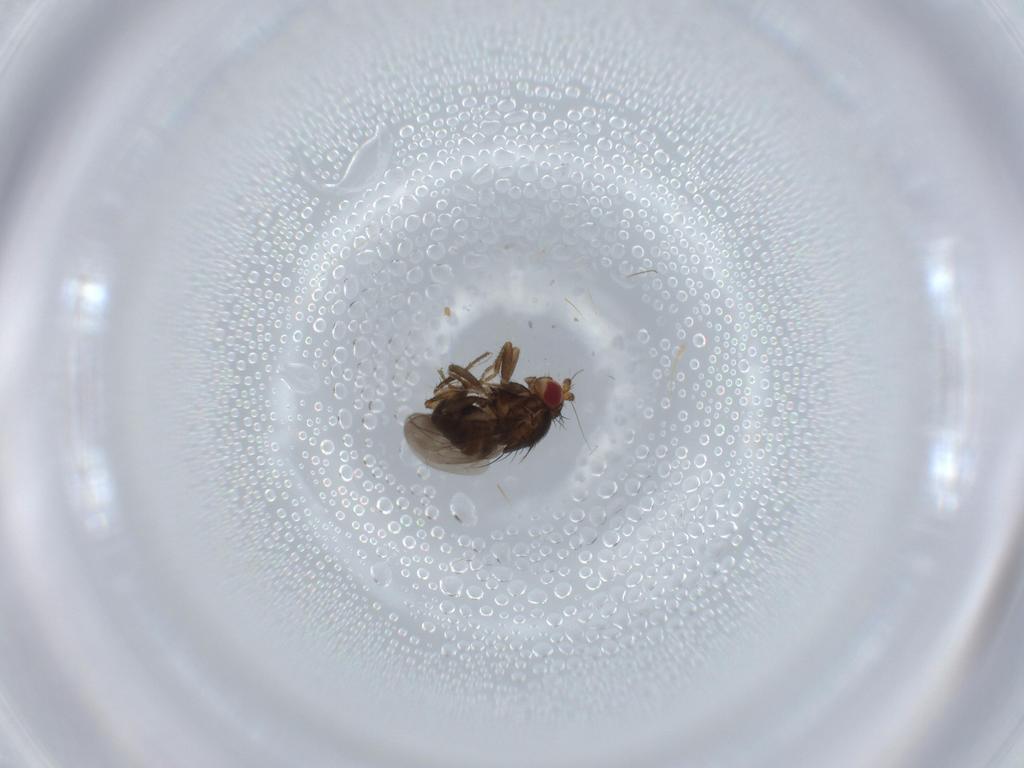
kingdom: Animalia
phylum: Arthropoda
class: Insecta
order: Diptera
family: Sphaeroceridae
